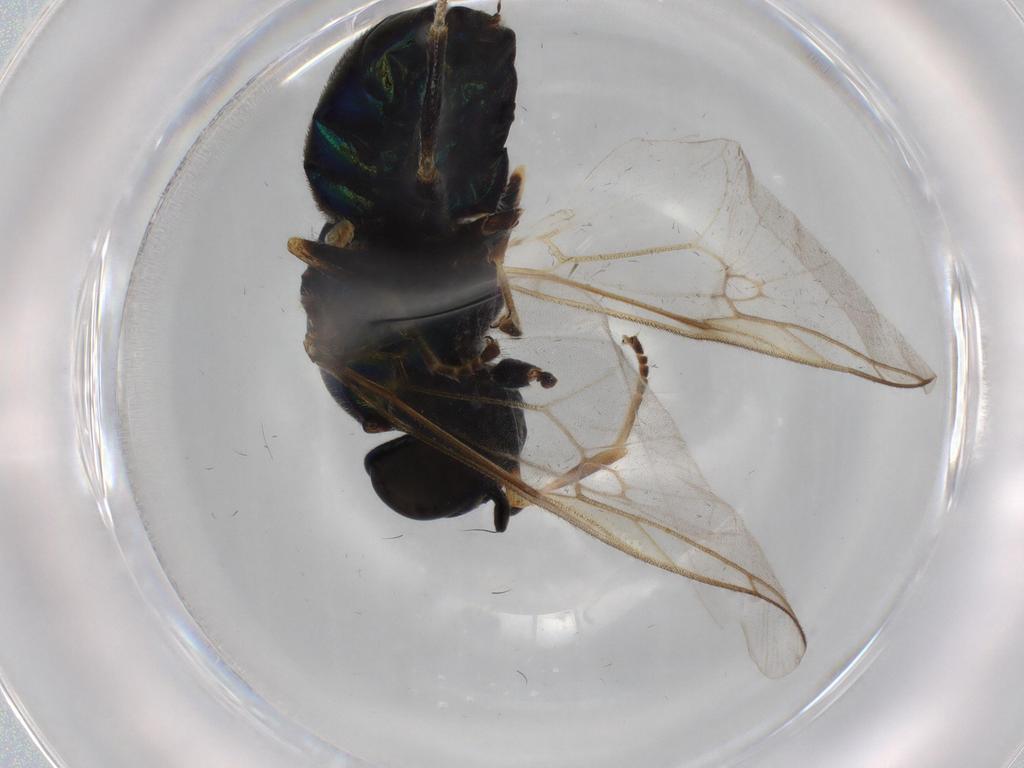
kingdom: Animalia
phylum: Arthropoda
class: Insecta
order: Diptera
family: Stratiomyidae
